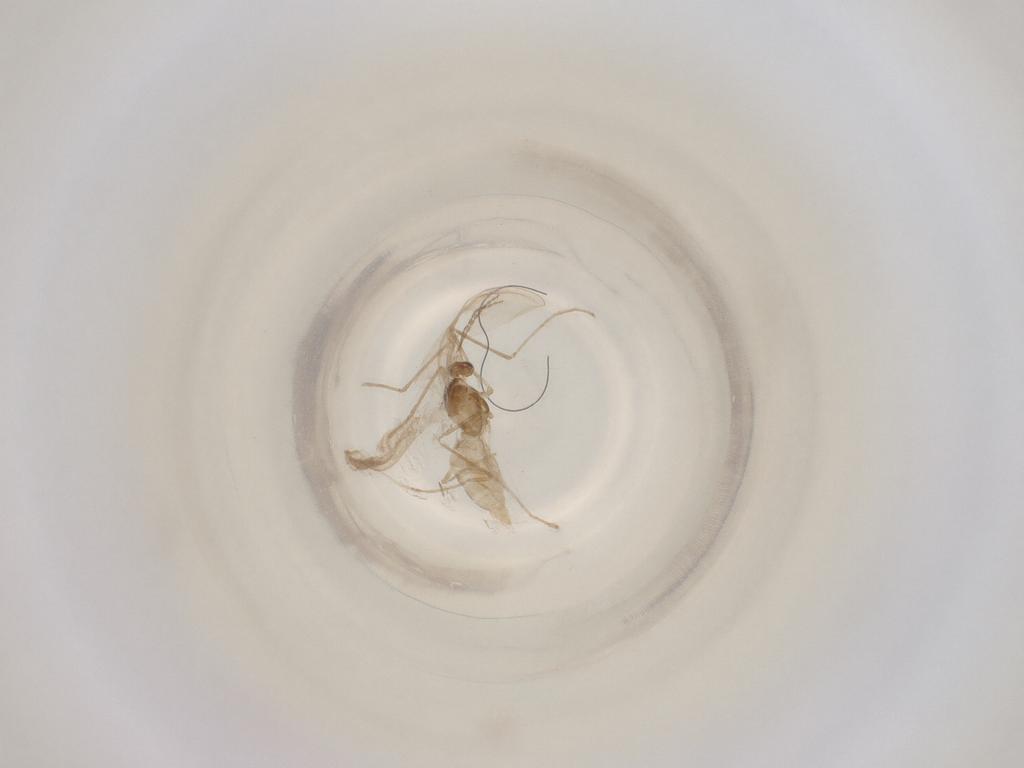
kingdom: Animalia
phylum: Arthropoda
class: Insecta
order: Diptera
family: Cecidomyiidae
